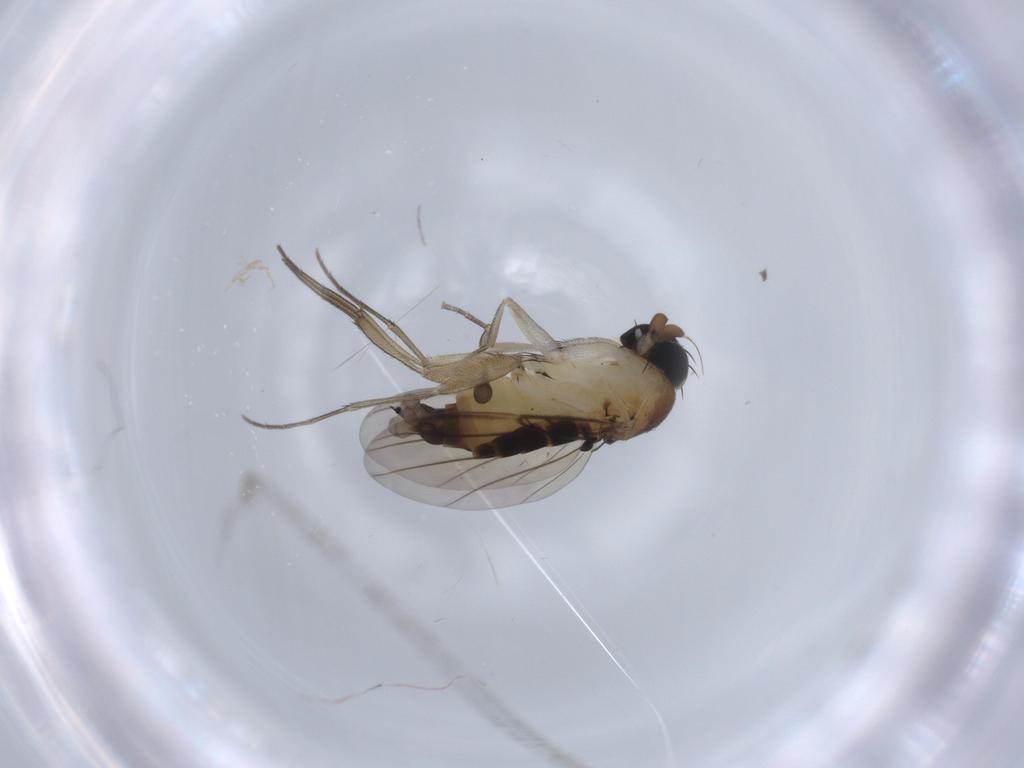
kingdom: Animalia
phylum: Arthropoda
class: Insecta
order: Diptera
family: Phoridae
